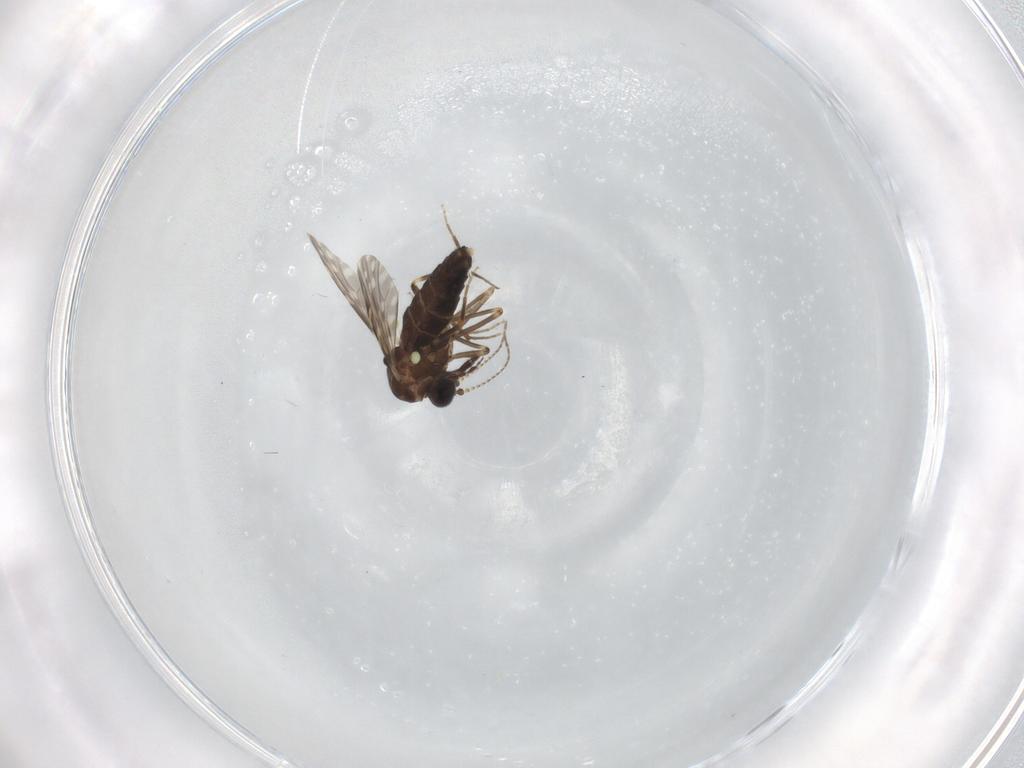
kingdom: Animalia
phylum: Arthropoda
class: Insecta
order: Diptera
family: Ceratopogonidae
